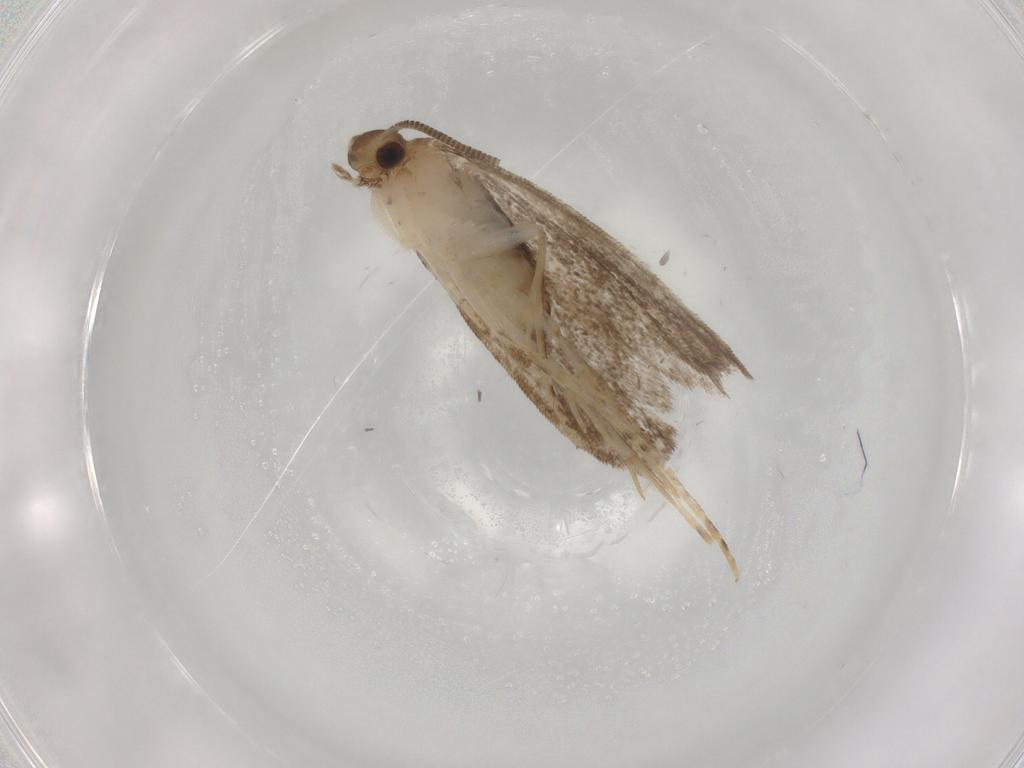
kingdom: Animalia
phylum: Arthropoda
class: Insecta
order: Lepidoptera
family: Dryadaulidae
